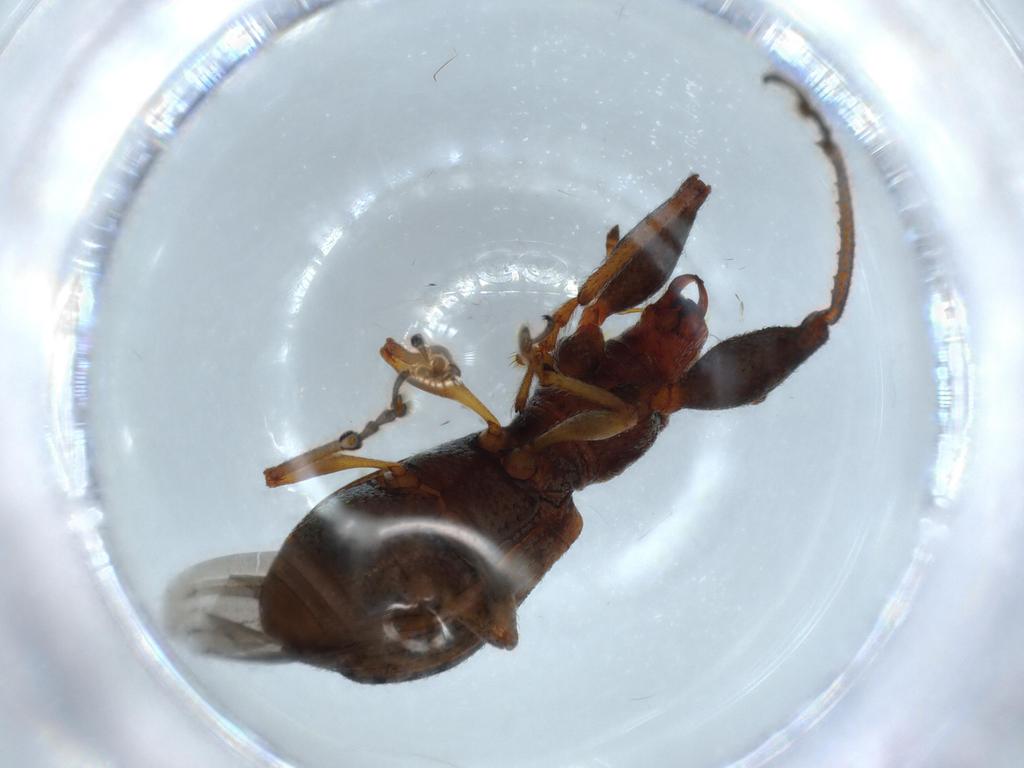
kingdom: Animalia
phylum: Arthropoda
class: Insecta
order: Coleoptera
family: Curculionidae
